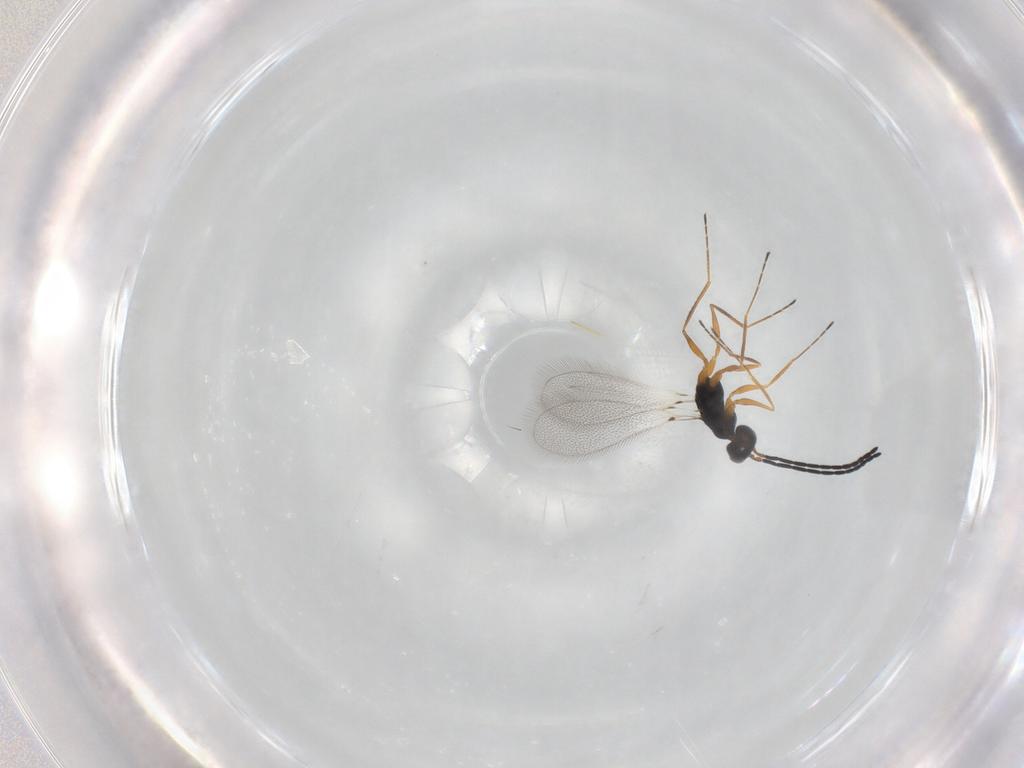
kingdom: Animalia
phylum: Arthropoda
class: Insecta
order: Hymenoptera
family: Mymaridae
